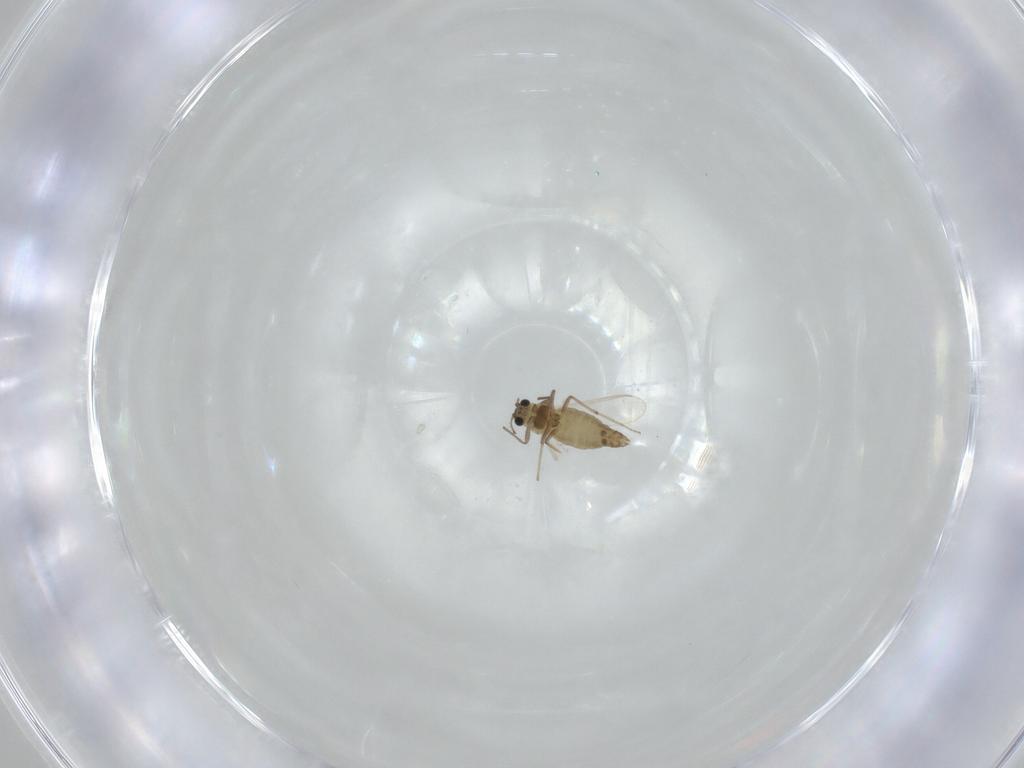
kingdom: Animalia
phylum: Arthropoda
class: Insecta
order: Diptera
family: Chironomidae
